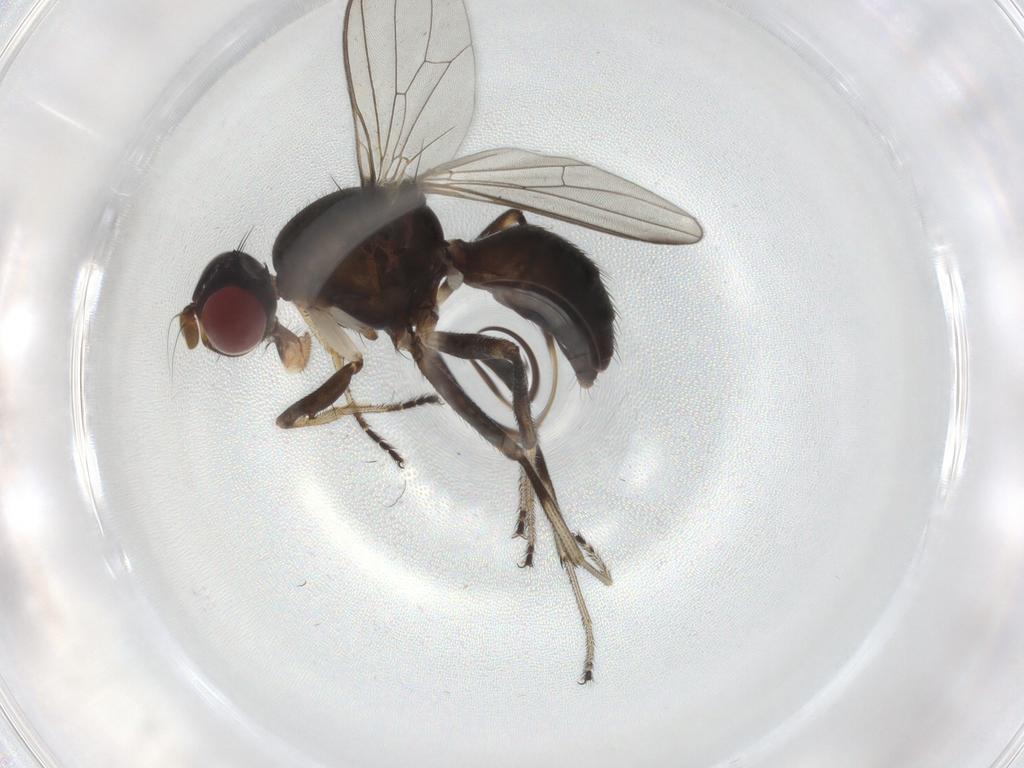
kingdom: Animalia
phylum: Arthropoda
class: Insecta
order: Diptera
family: Sepsidae
